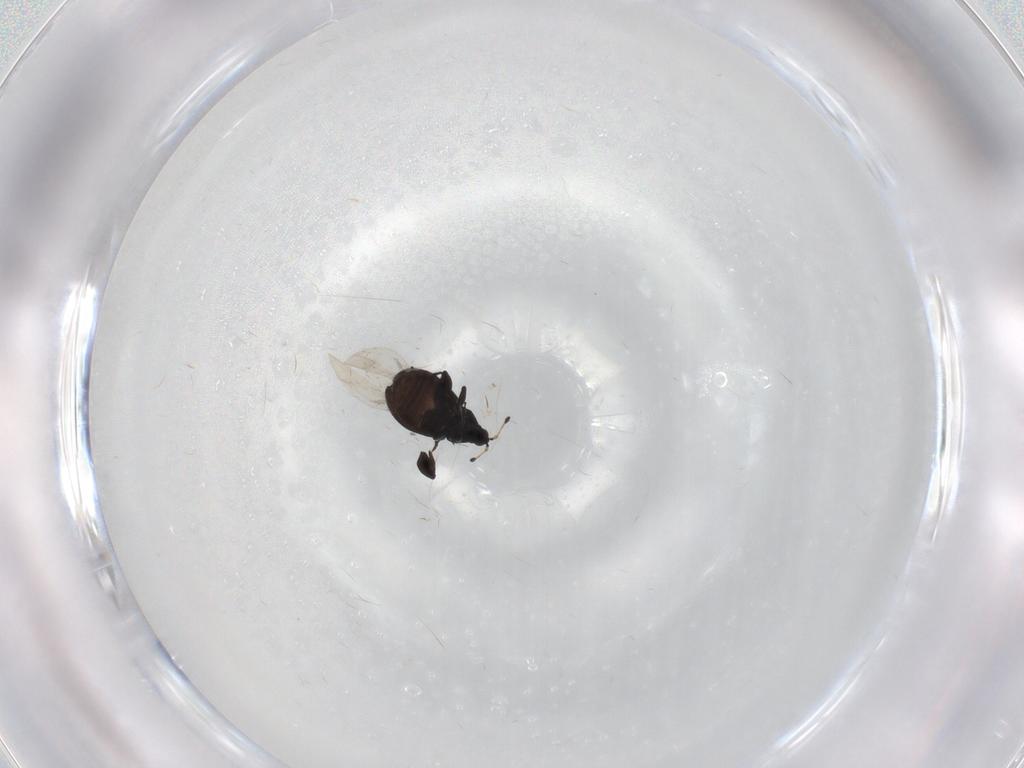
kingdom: Animalia
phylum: Arthropoda
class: Insecta
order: Coleoptera
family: Curculionidae
